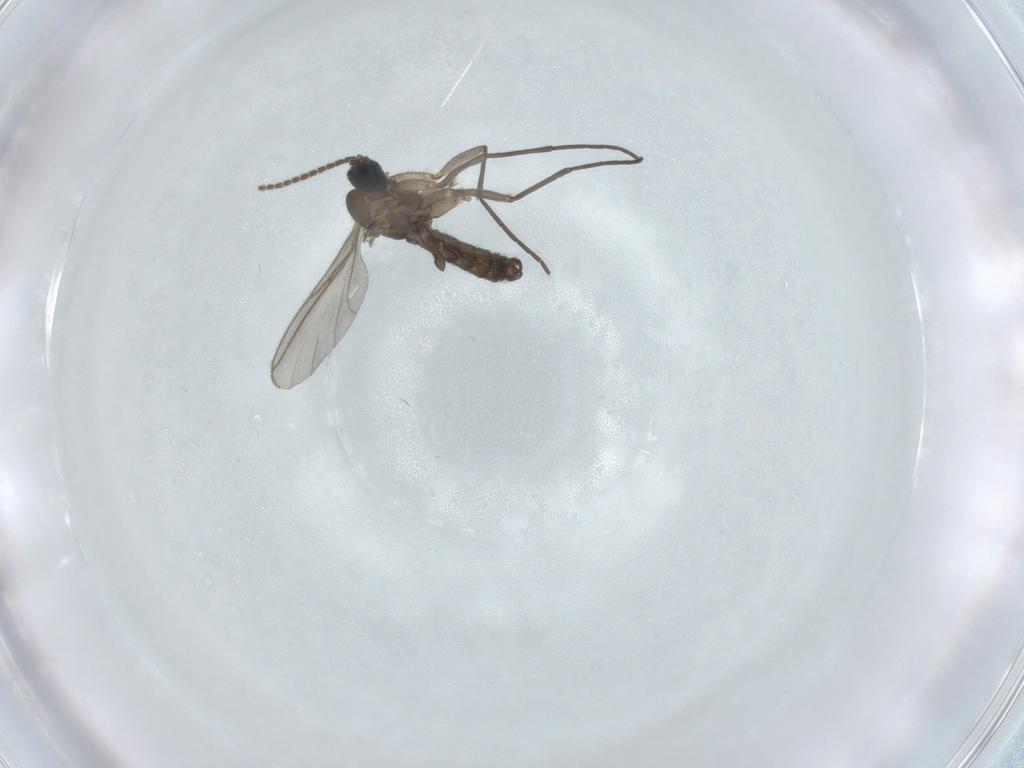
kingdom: Animalia
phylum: Arthropoda
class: Insecta
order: Diptera
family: Sciaridae
